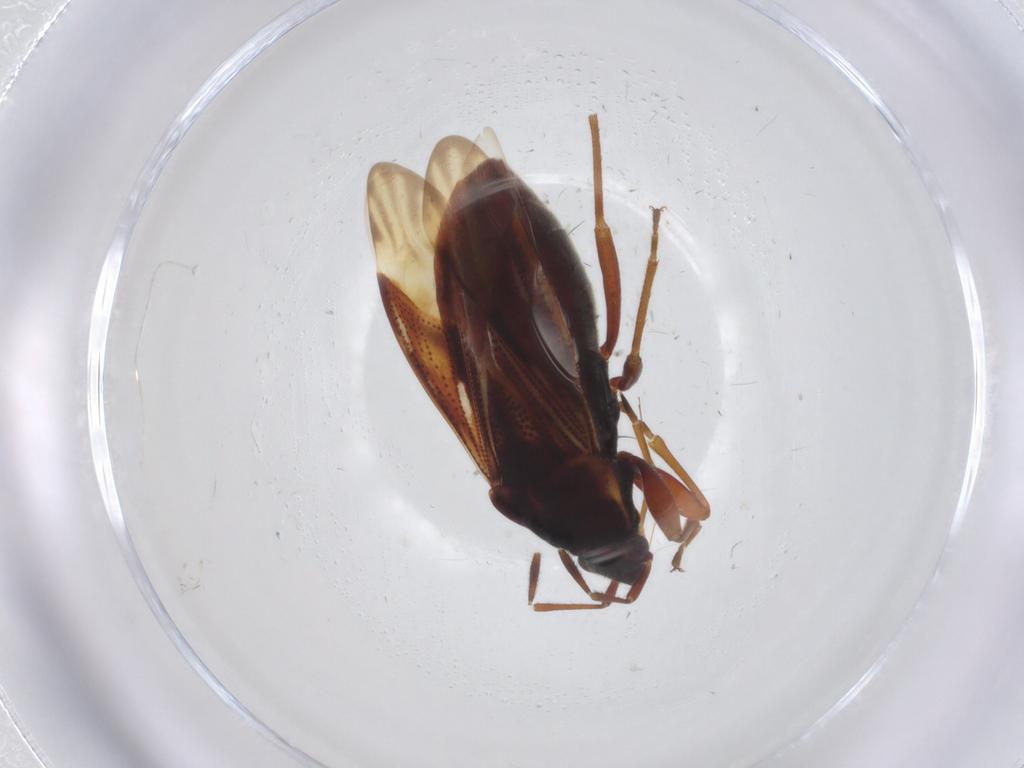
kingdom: Animalia
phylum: Arthropoda
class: Insecta
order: Hemiptera
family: Rhyparochromidae
